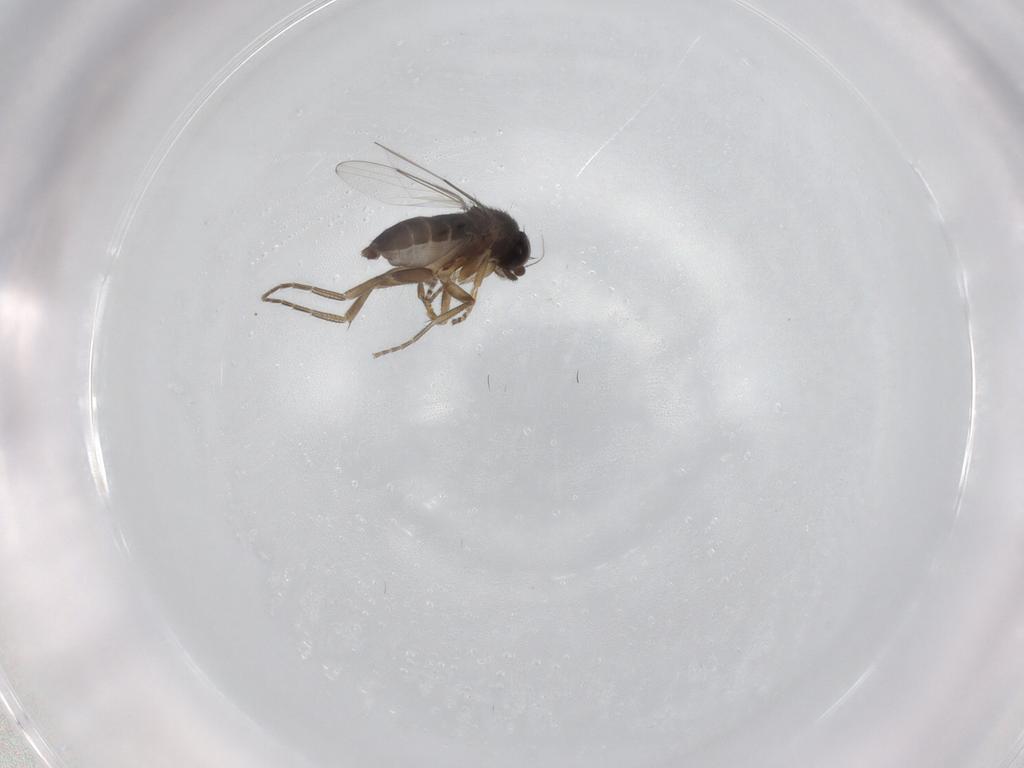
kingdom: Animalia
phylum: Arthropoda
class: Insecta
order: Diptera
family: Phoridae
